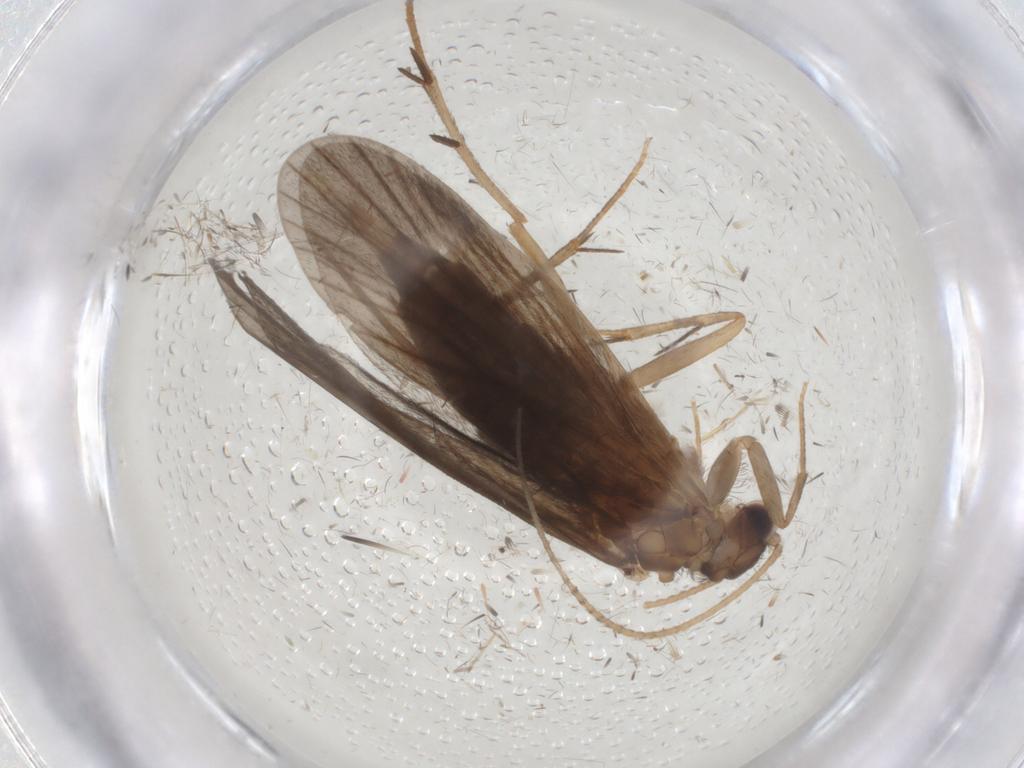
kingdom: Animalia
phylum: Arthropoda
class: Insecta
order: Trichoptera
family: Philopotamidae
